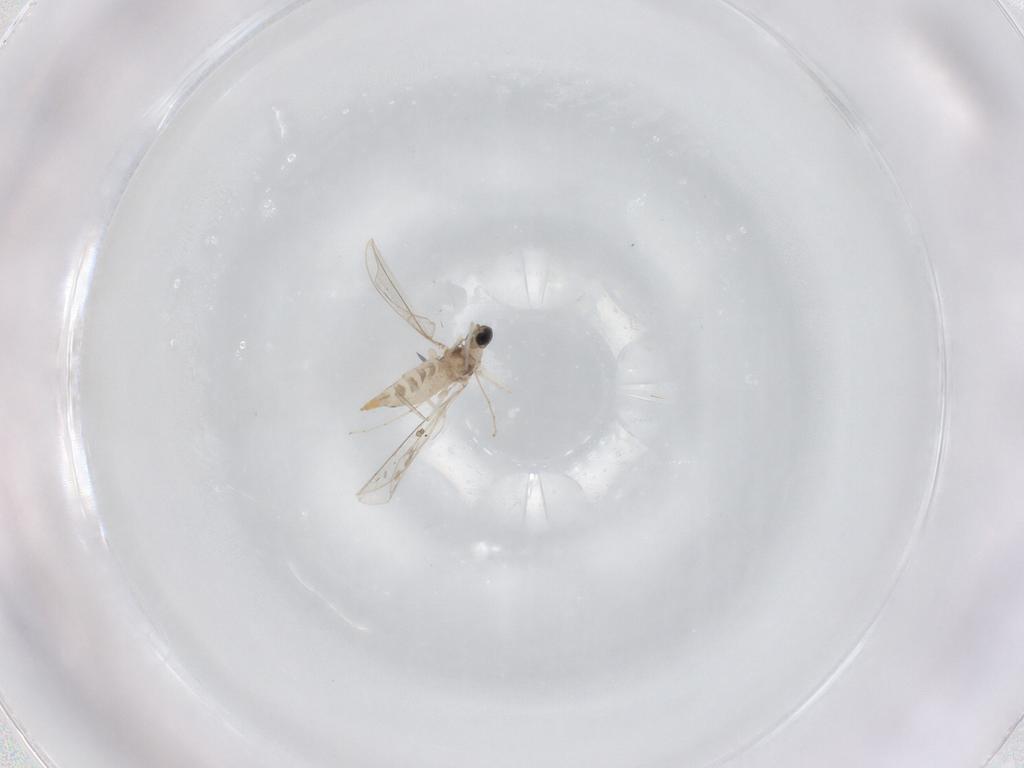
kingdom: Animalia
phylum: Arthropoda
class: Insecta
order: Diptera
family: Cecidomyiidae
